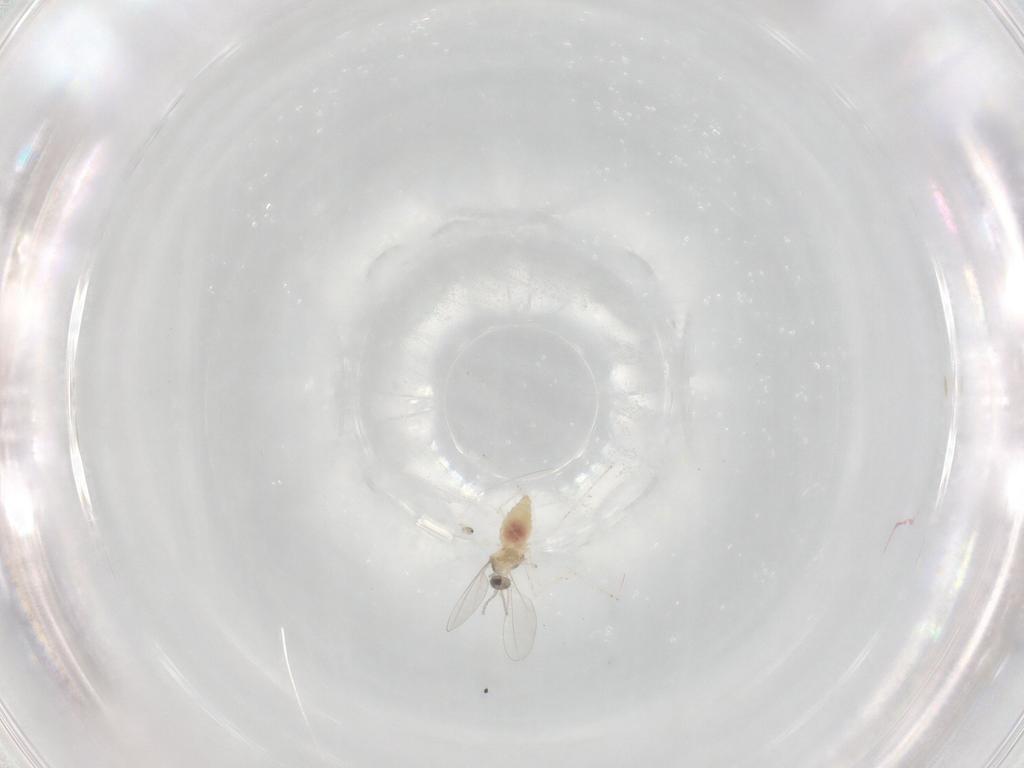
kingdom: Animalia
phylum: Arthropoda
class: Insecta
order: Diptera
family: Cecidomyiidae
